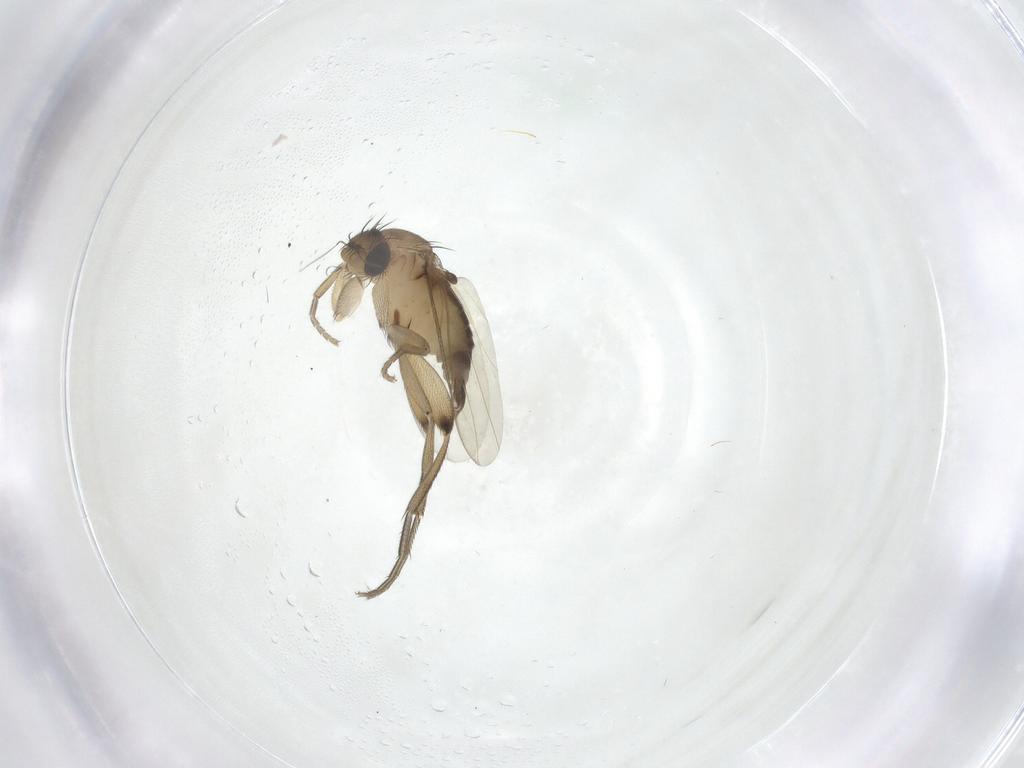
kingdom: Animalia
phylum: Arthropoda
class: Insecta
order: Diptera
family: Phoridae
